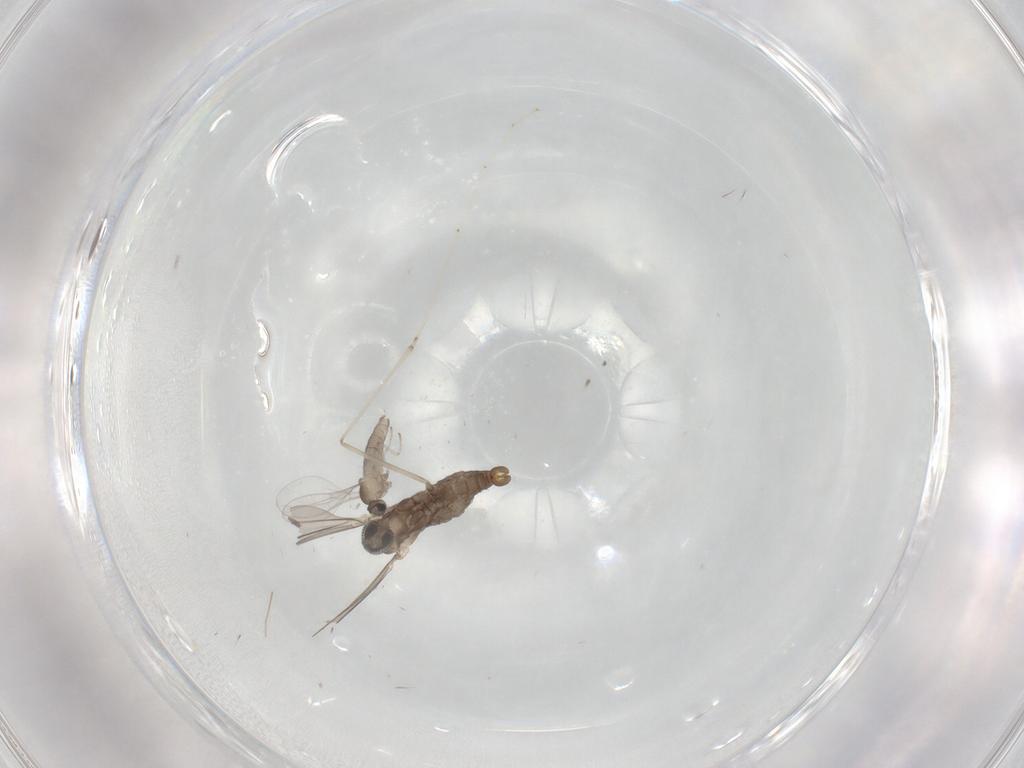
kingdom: Animalia
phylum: Arthropoda
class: Insecta
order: Diptera
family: Cecidomyiidae
